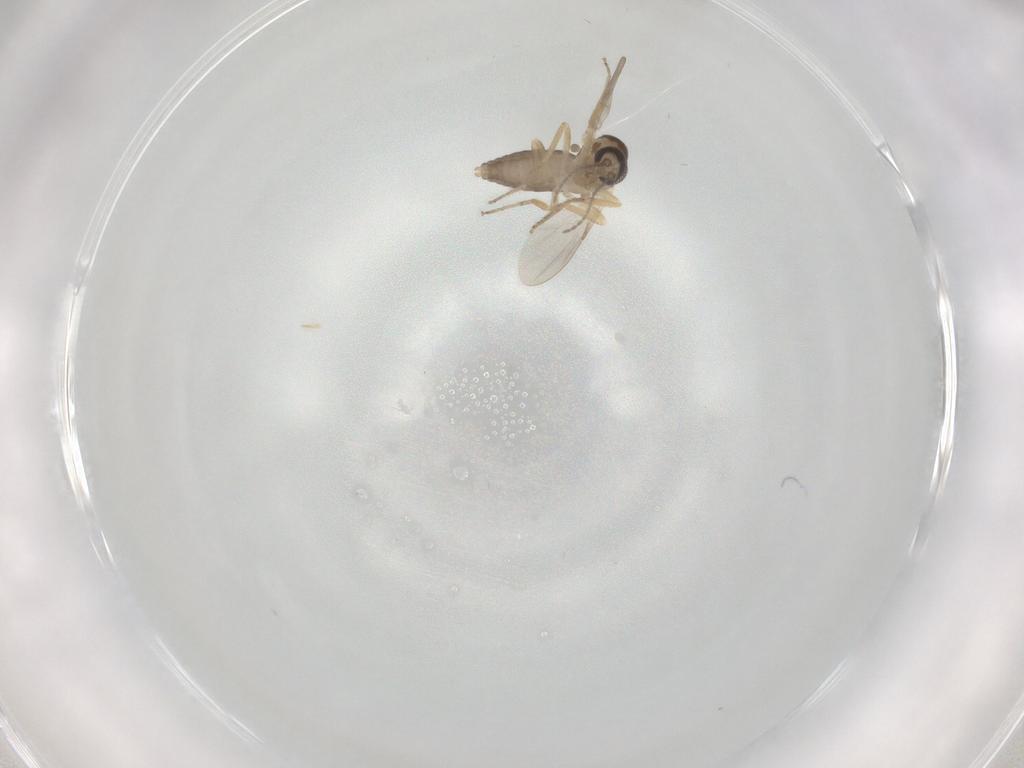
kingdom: Animalia
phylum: Arthropoda
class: Insecta
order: Diptera
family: Ceratopogonidae
